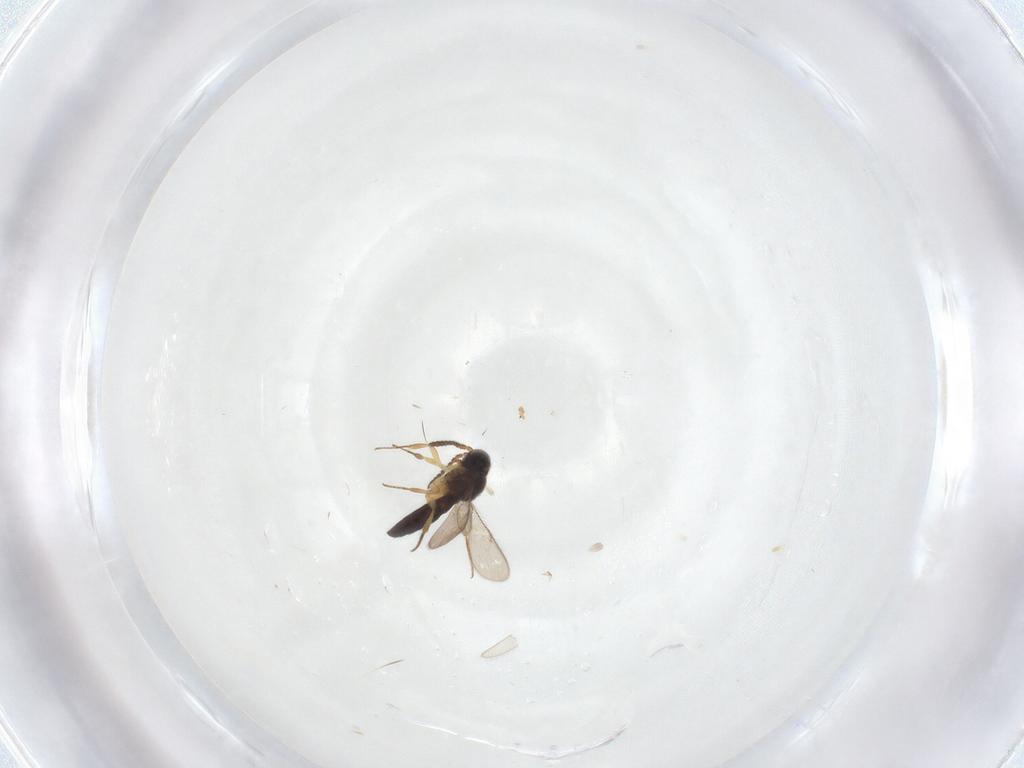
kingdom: Animalia
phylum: Arthropoda
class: Insecta
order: Hymenoptera
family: Scelionidae
